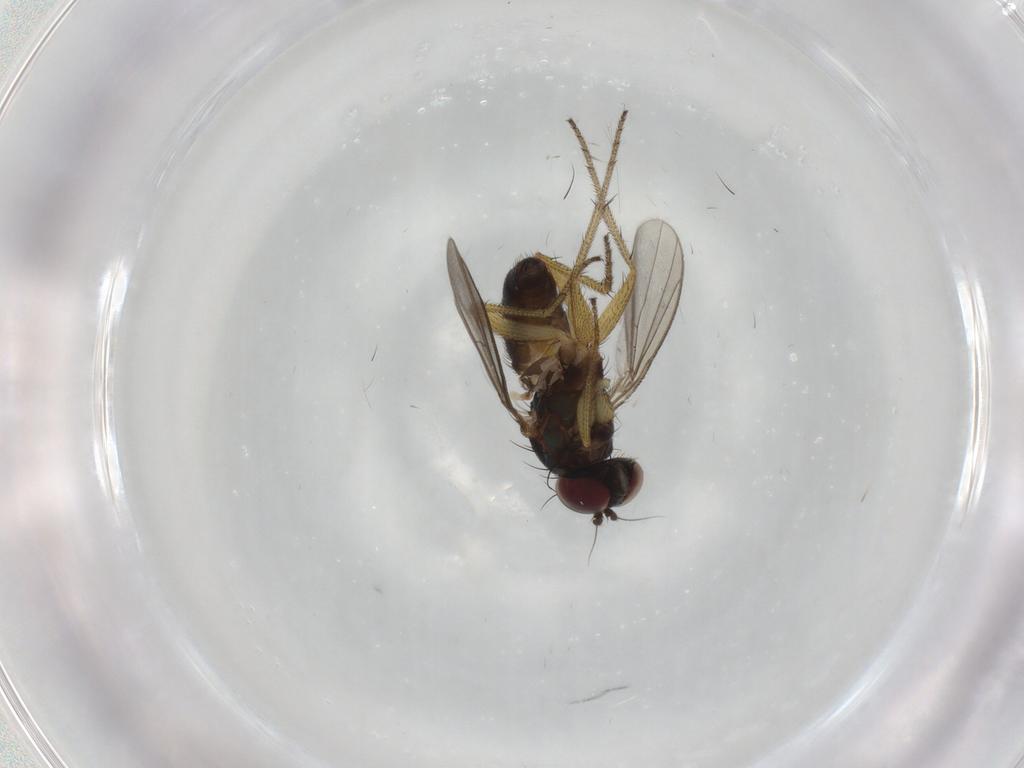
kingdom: Animalia
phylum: Arthropoda
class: Insecta
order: Diptera
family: Dolichopodidae
